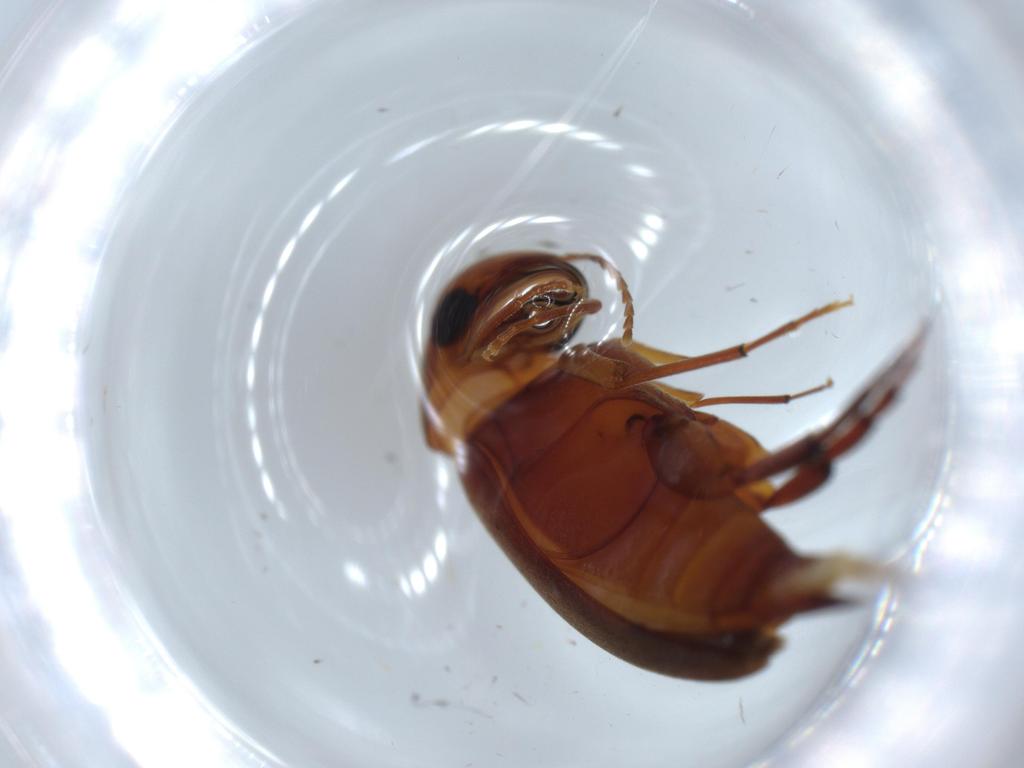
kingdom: Animalia
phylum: Arthropoda
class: Insecta
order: Coleoptera
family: Mordellidae
